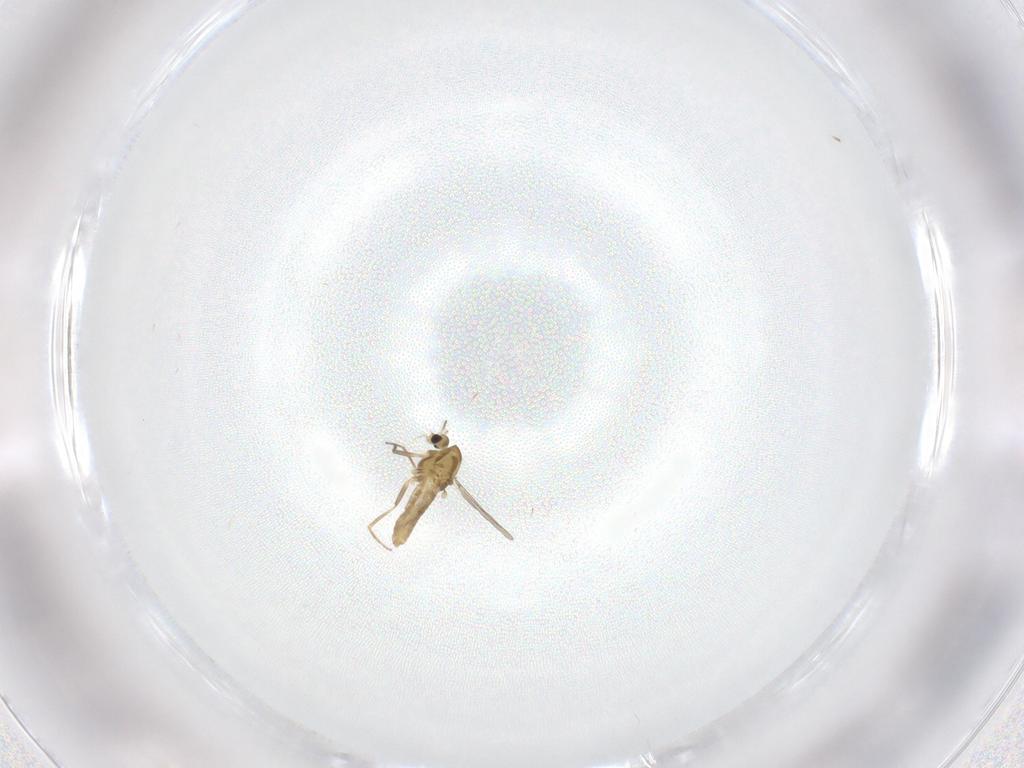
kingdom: Animalia
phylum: Arthropoda
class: Insecta
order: Diptera
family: Chironomidae
